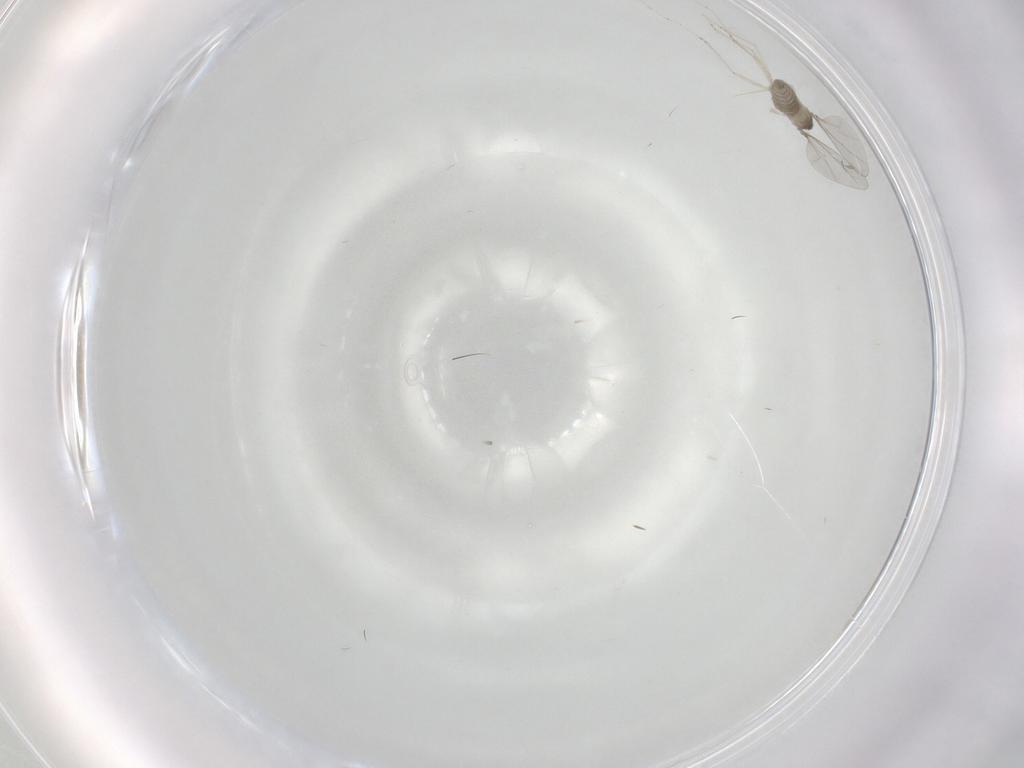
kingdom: Animalia
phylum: Arthropoda
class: Insecta
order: Diptera
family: Cecidomyiidae
